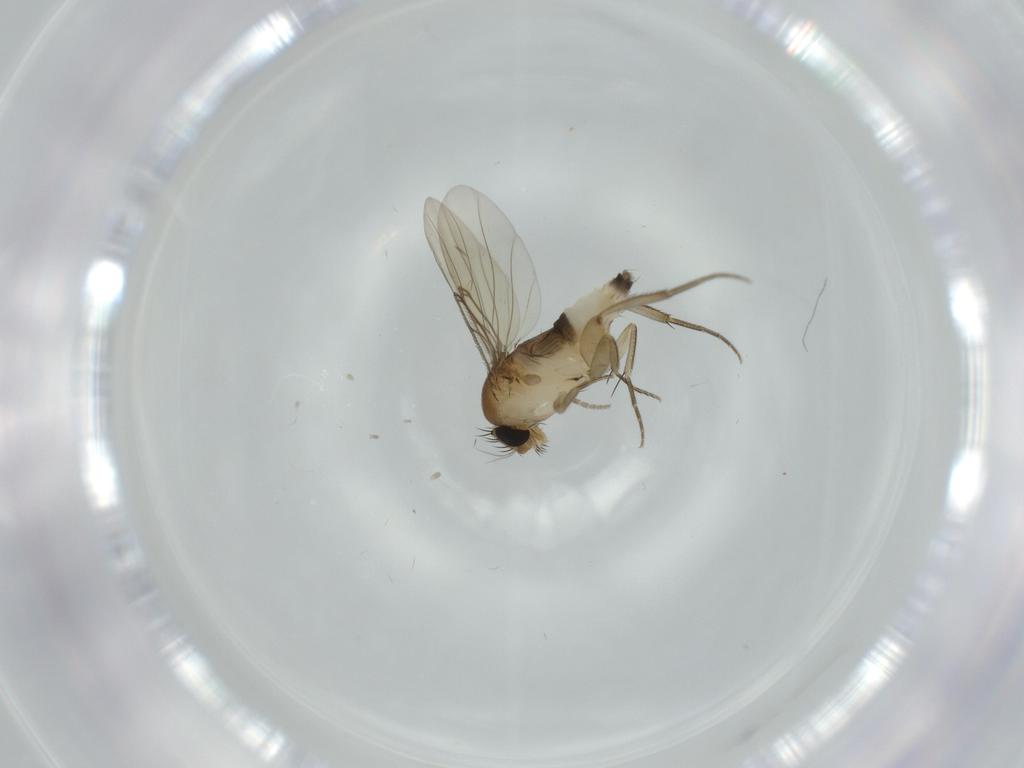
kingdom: Animalia
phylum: Arthropoda
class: Insecta
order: Diptera
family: Phoridae
